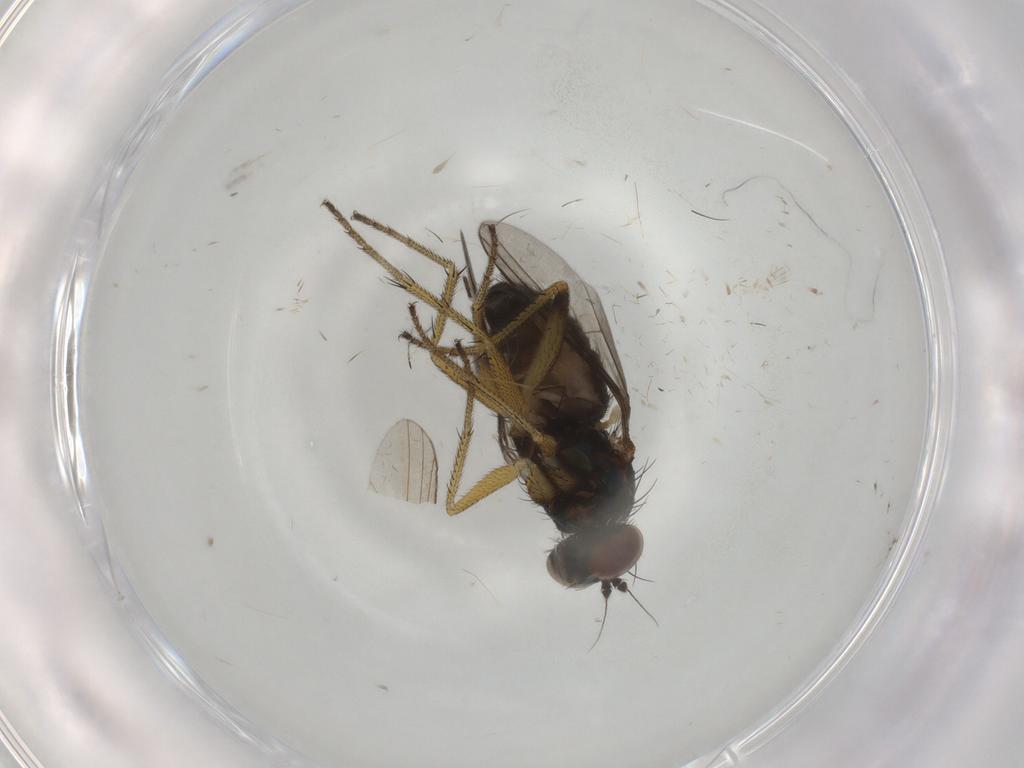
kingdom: Animalia
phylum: Arthropoda
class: Insecta
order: Diptera
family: Dolichopodidae
